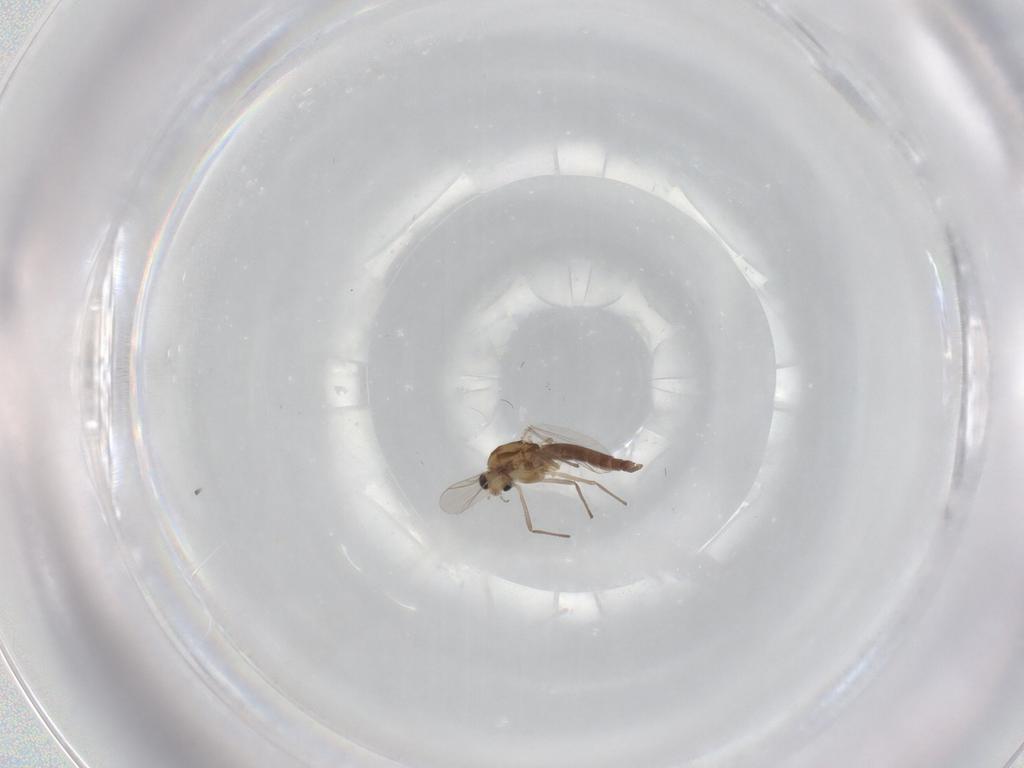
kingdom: Animalia
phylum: Arthropoda
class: Insecta
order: Diptera
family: Chironomidae
